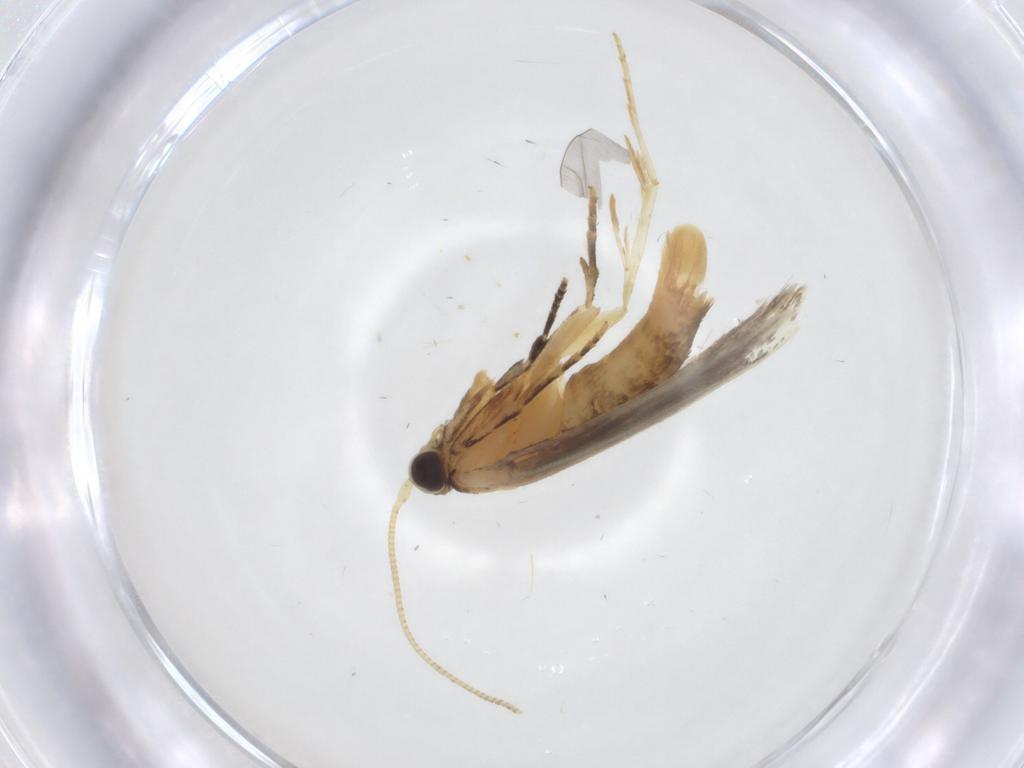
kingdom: Animalia
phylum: Arthropoda
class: Insecta
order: Lepidoptera
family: Tineidae
